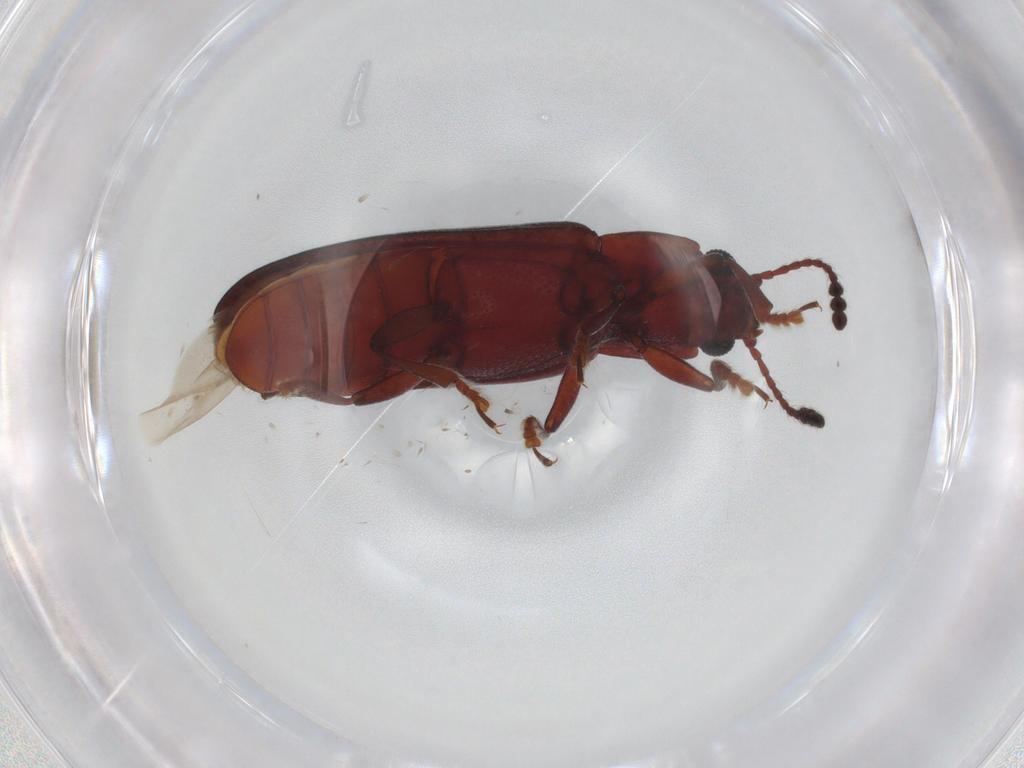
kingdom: Animalia
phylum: Arthropoda
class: Insecta
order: Coleoptera
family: Erotylidae
